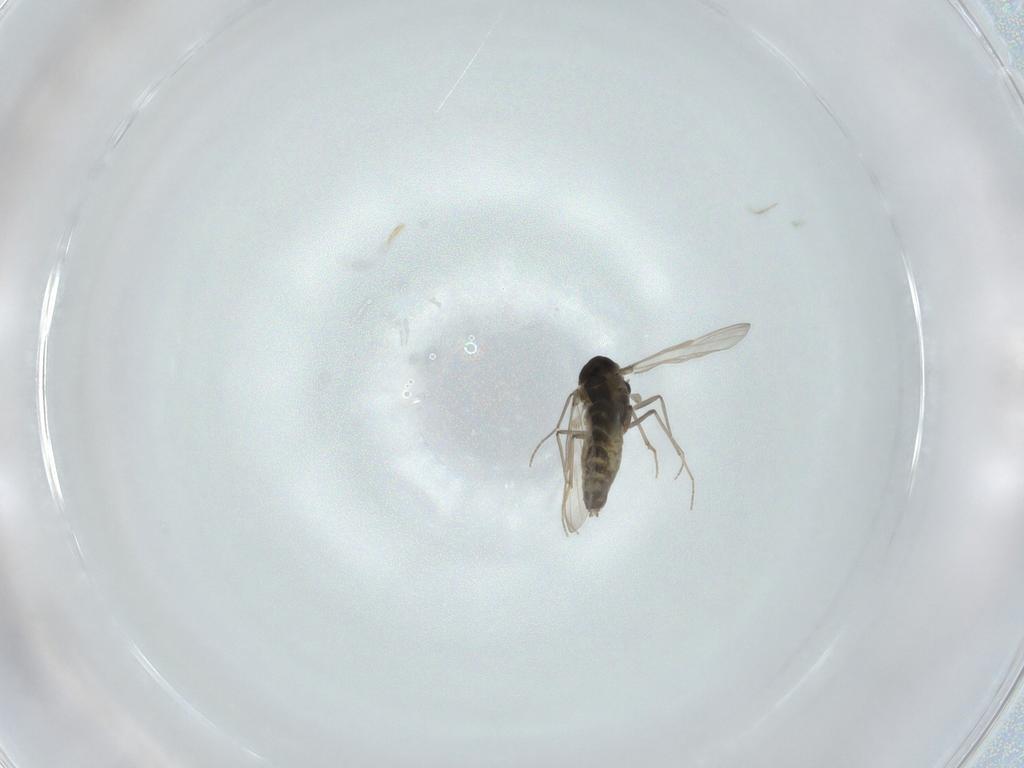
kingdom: Animalia
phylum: Arthropoda
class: Insecta
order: Diptera
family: Chironomidae
